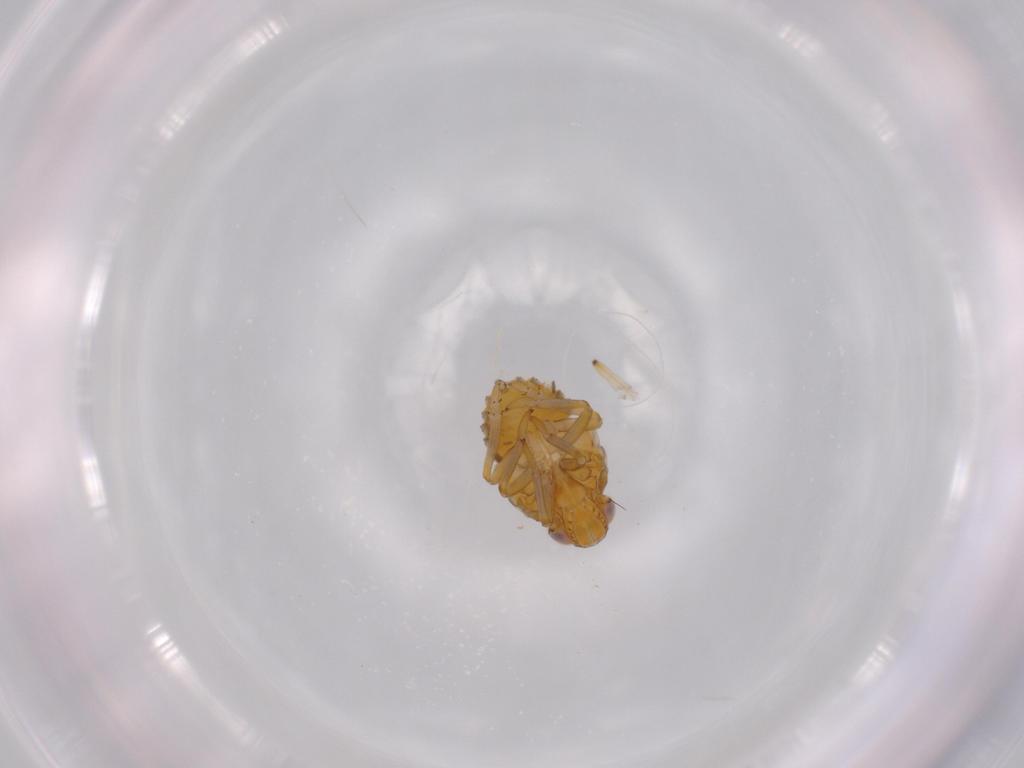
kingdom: Animalia
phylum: Arthropoda
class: Insecta
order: Hemiptera
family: Issidae
